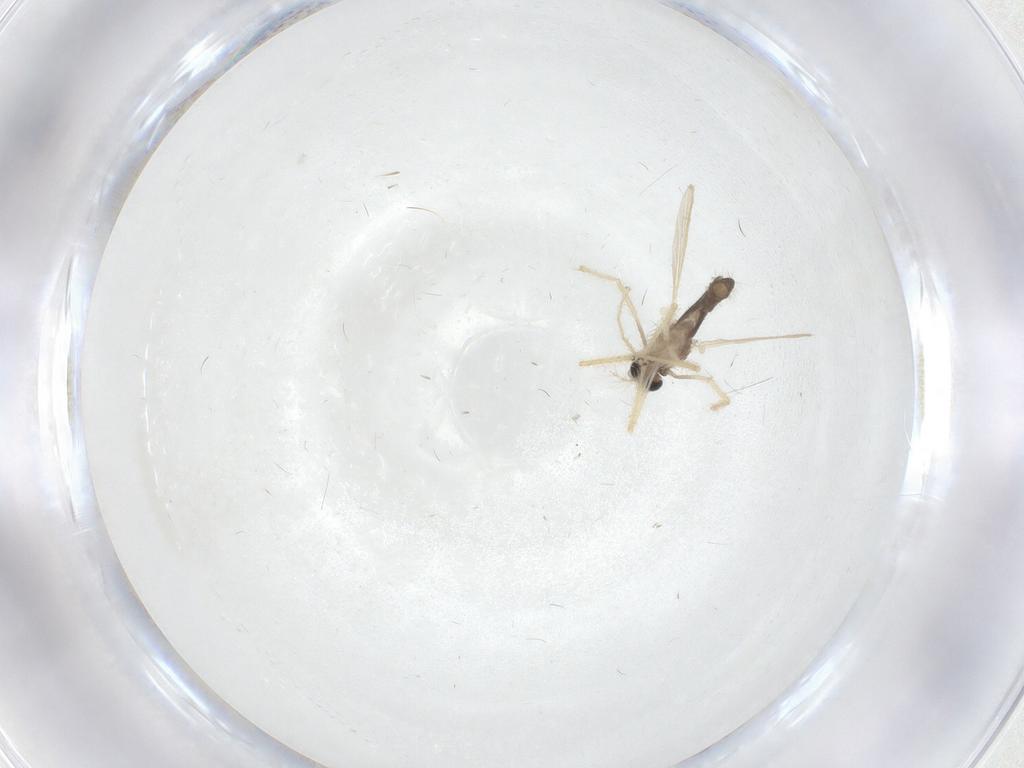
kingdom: Animalia
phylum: Arthropoda
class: Insecta
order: Diptera
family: Chironomidae
